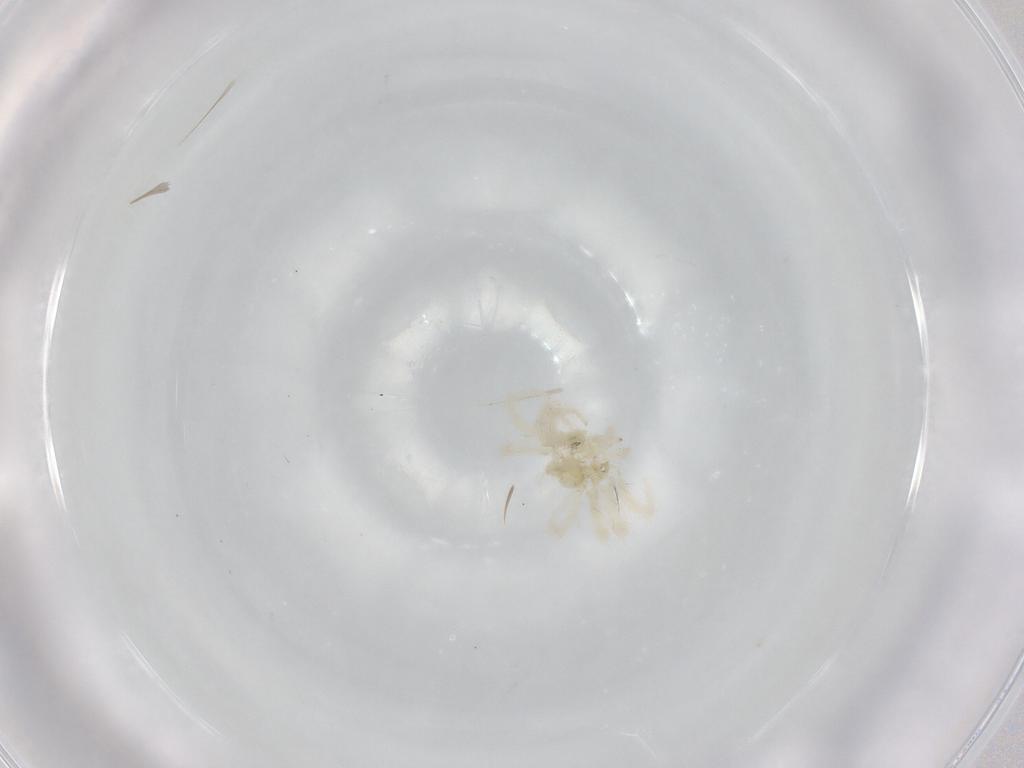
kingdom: Animalia
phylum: Arthropoda
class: Arachnida
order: Trombidiformes
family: Anystidae
